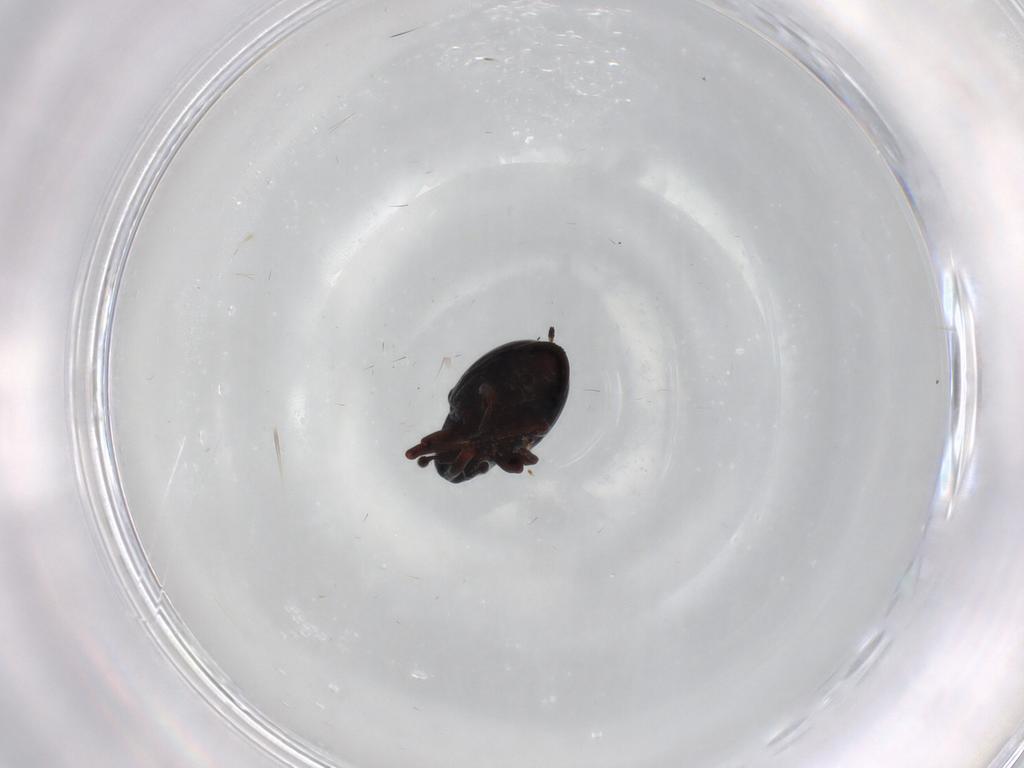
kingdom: Animalia
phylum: Arthropoda
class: Insecta
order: Coleoptera
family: Curculionidae
